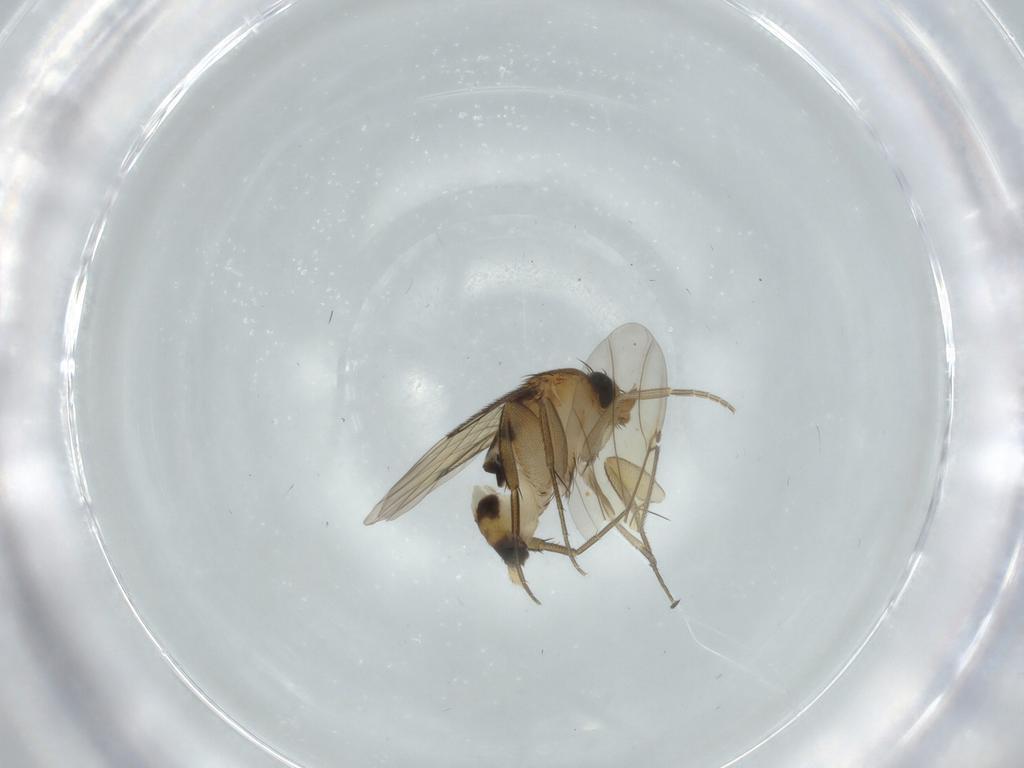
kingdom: Animalia
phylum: Arthropoda
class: Insecta
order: Diptera
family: Phoridae
